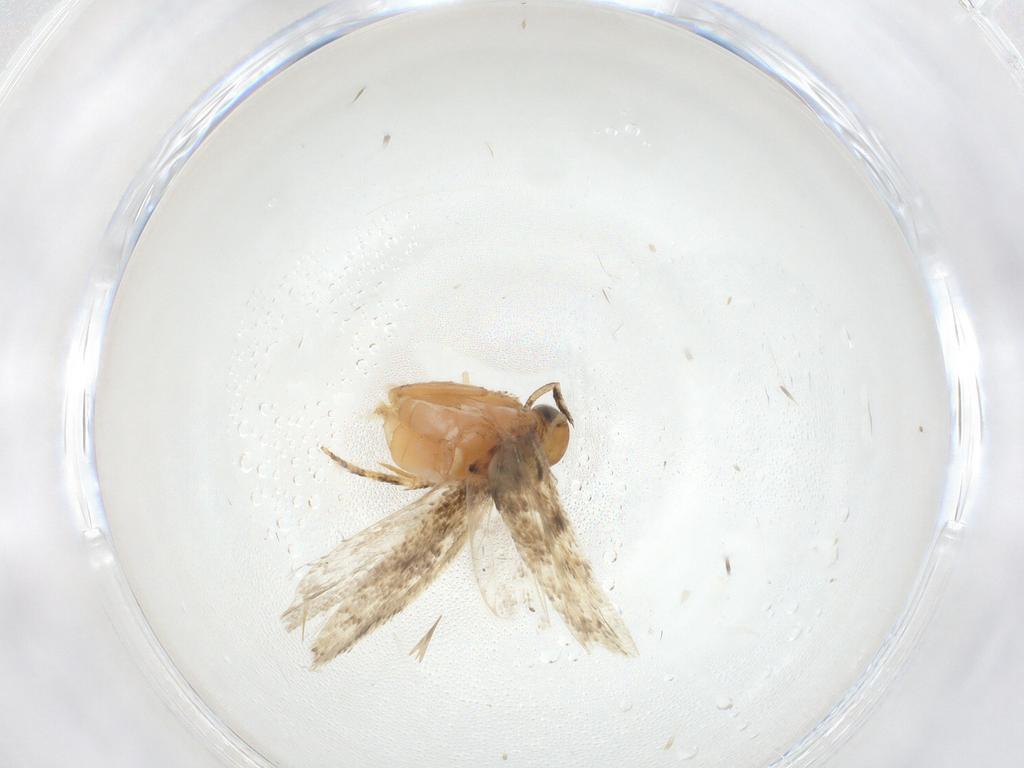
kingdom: Animalia
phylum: Arthropoda
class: Insecta
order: Lepidoptera
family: Gelechiidae
